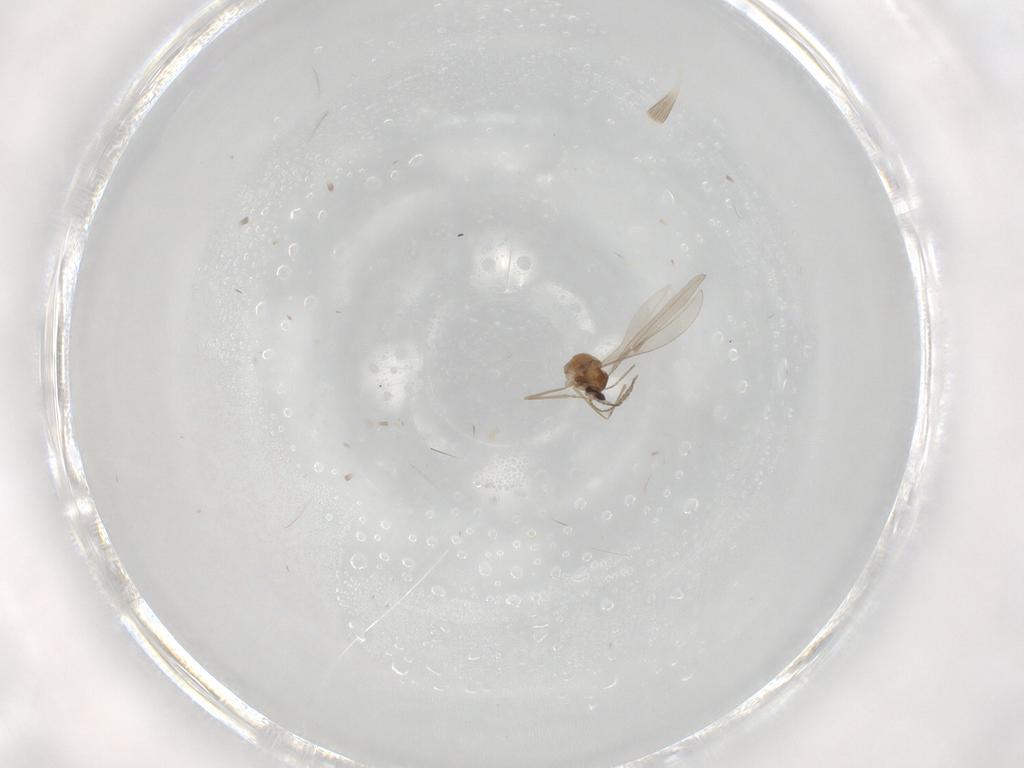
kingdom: Animalia
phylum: Arthropoda
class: Insecta
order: Diptera
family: Cecidomyiidae
